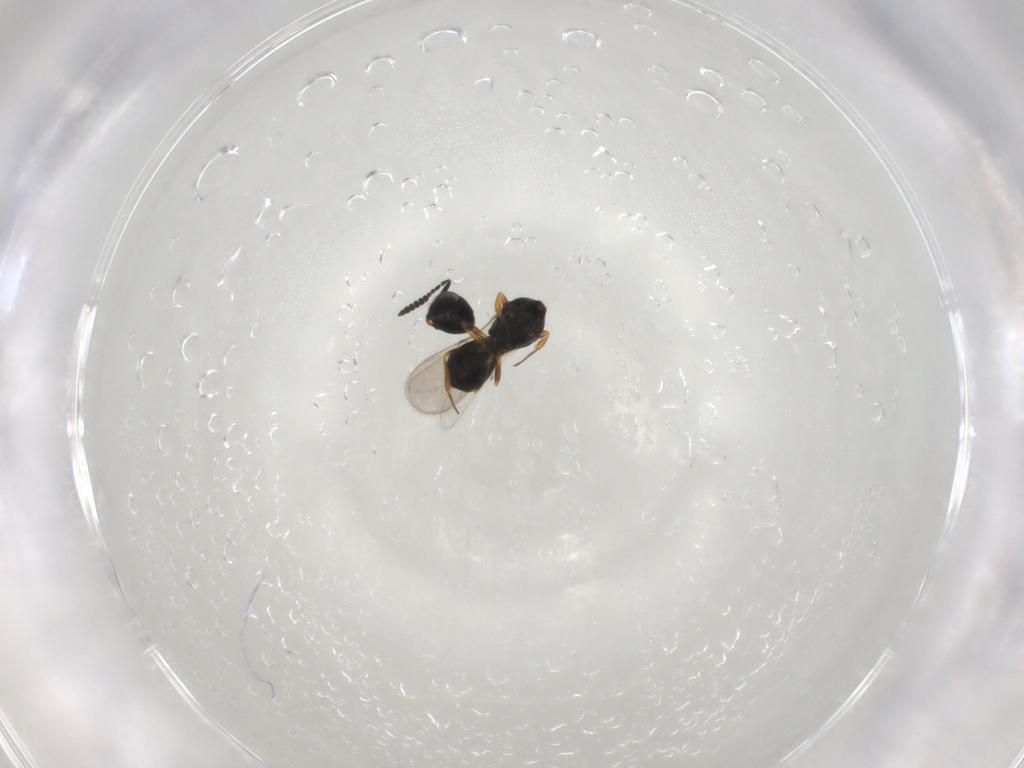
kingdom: Animalia
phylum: Arthropoda
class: Insecta
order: Hymenoptera
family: Scelionidae
